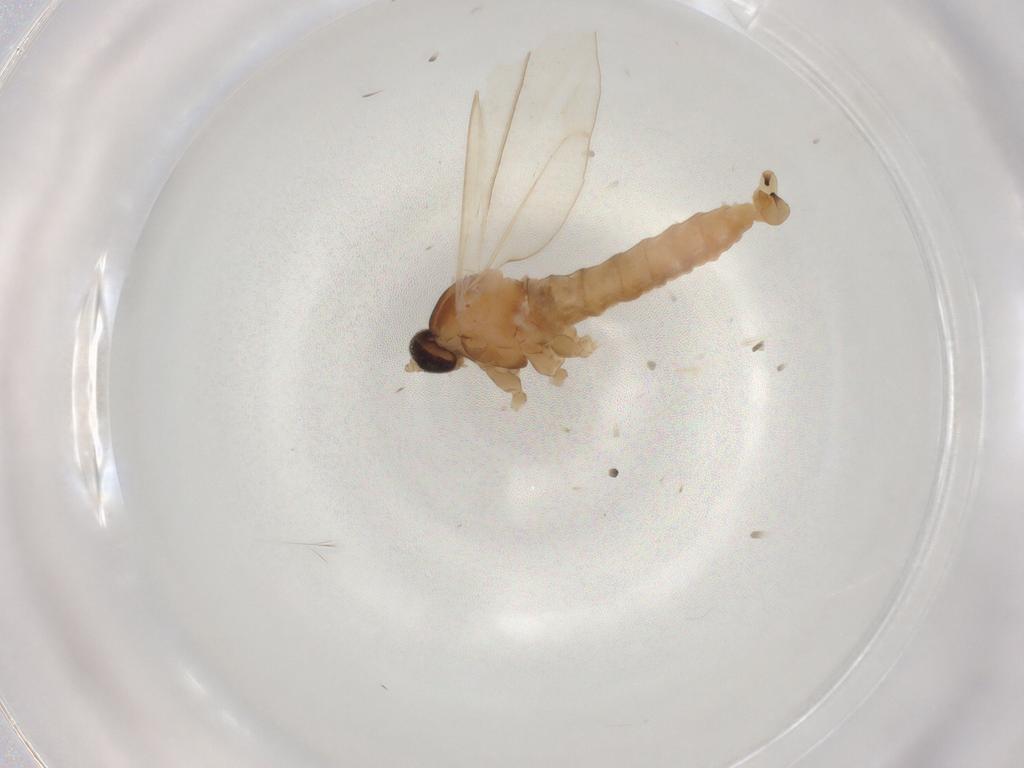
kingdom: Animalia
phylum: Arthropoda
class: Insecta
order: Diptera
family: Cecidomyiidae
